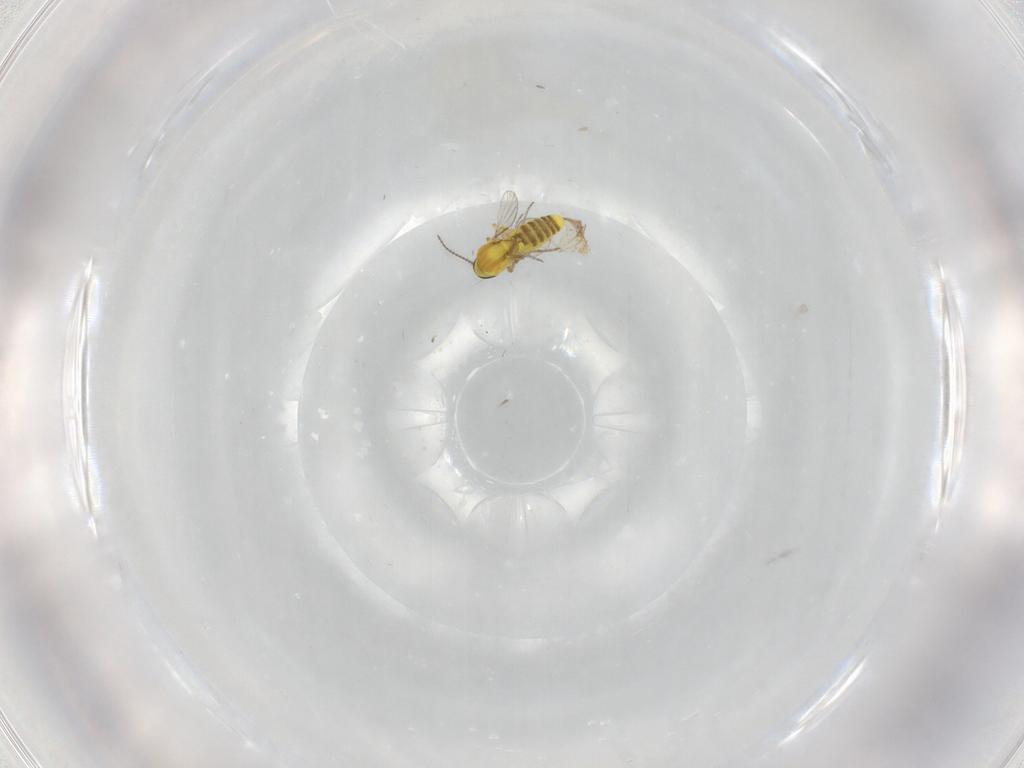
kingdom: Animalia
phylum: Arthropoda
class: Insecta
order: Diptera
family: Ceratopogonidae
